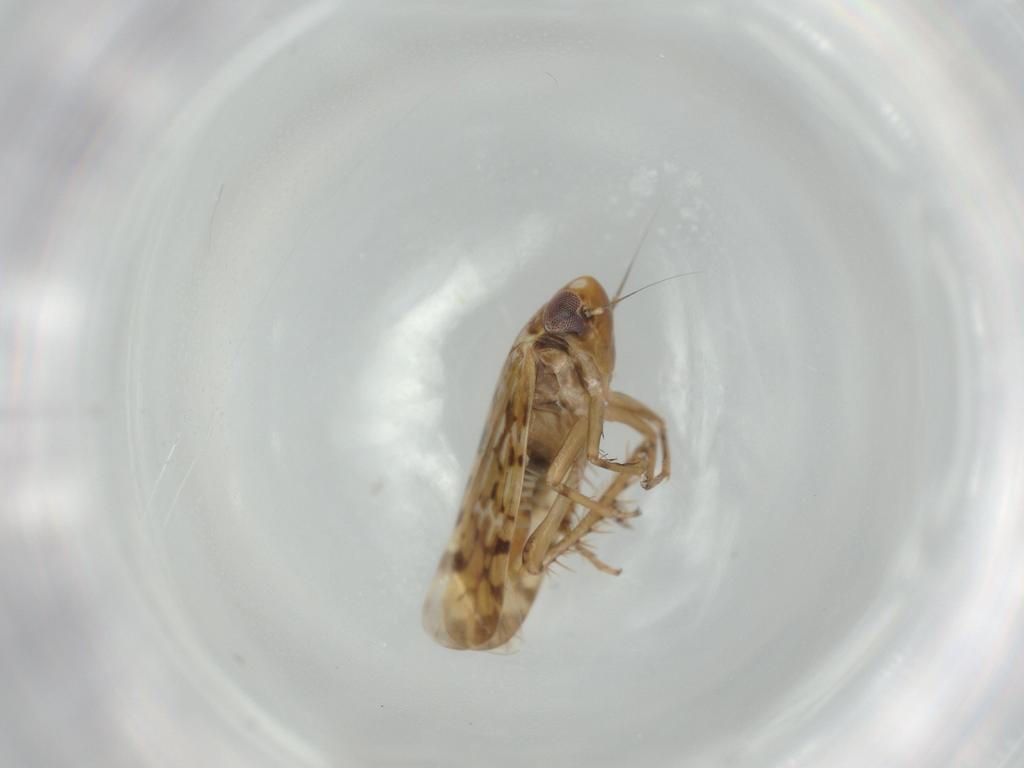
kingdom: Animalia
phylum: Arthropoda
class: Insecta
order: Hemiptera
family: Cicadellidae
